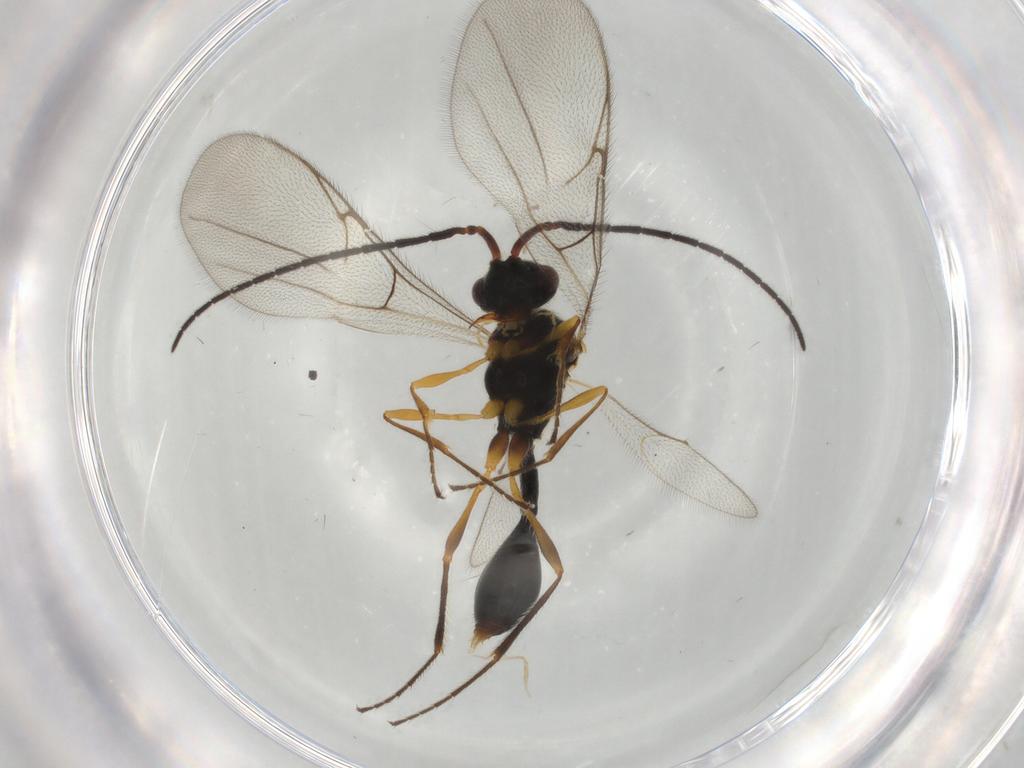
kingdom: Animalia
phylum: Arthropoda
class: Insecta
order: Hymenoptera
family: Diapriidae
